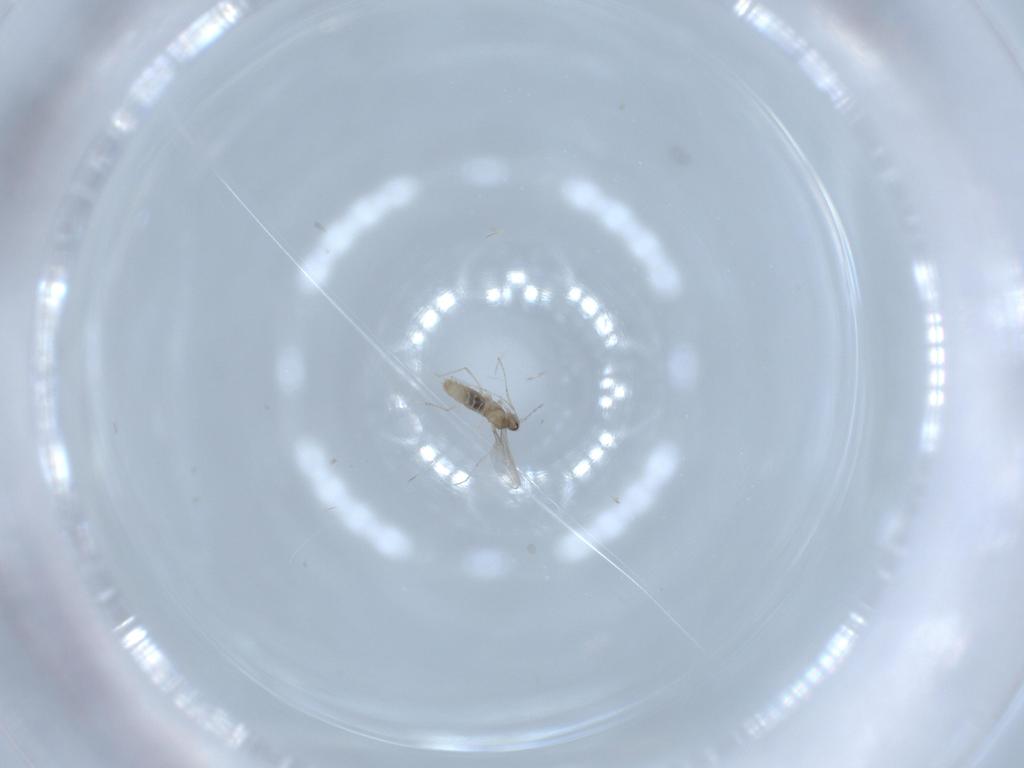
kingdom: Animalia
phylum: Arthropoda
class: Insecta
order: Diptera
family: Cecidomyiidae
